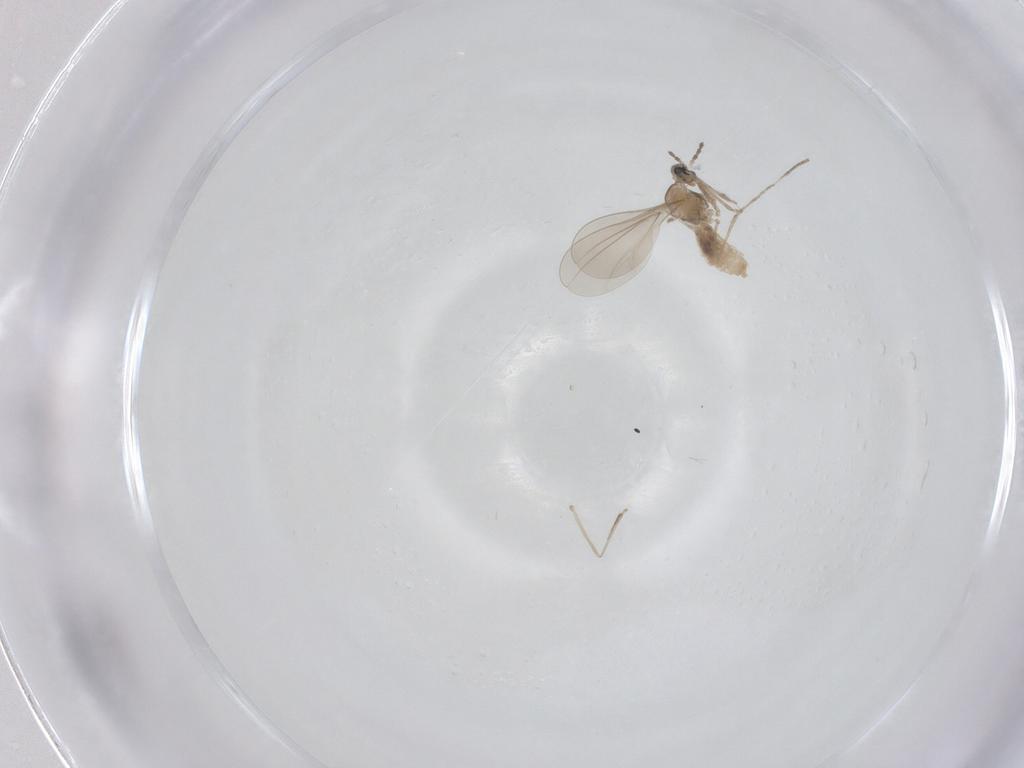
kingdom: Animalia
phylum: Arthropoda
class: Insecta
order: Diptera
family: Cecidomyiidae
